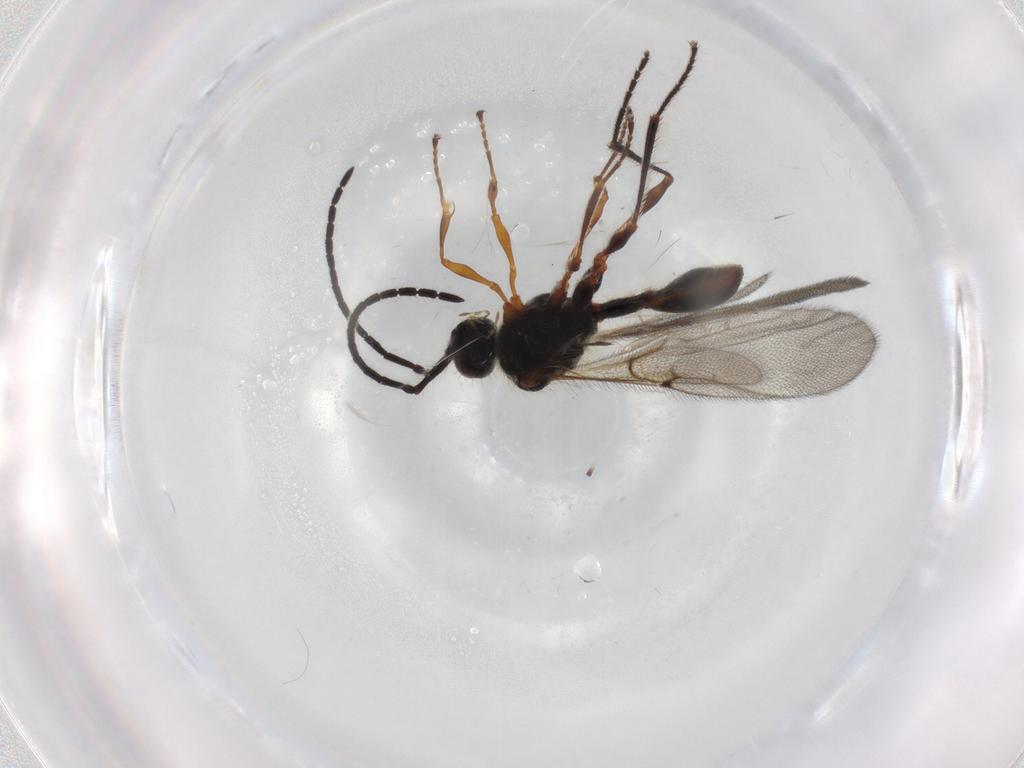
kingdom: Animalia
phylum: Arthropoda
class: Insecta
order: Hymenoptera
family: Diapriidae
